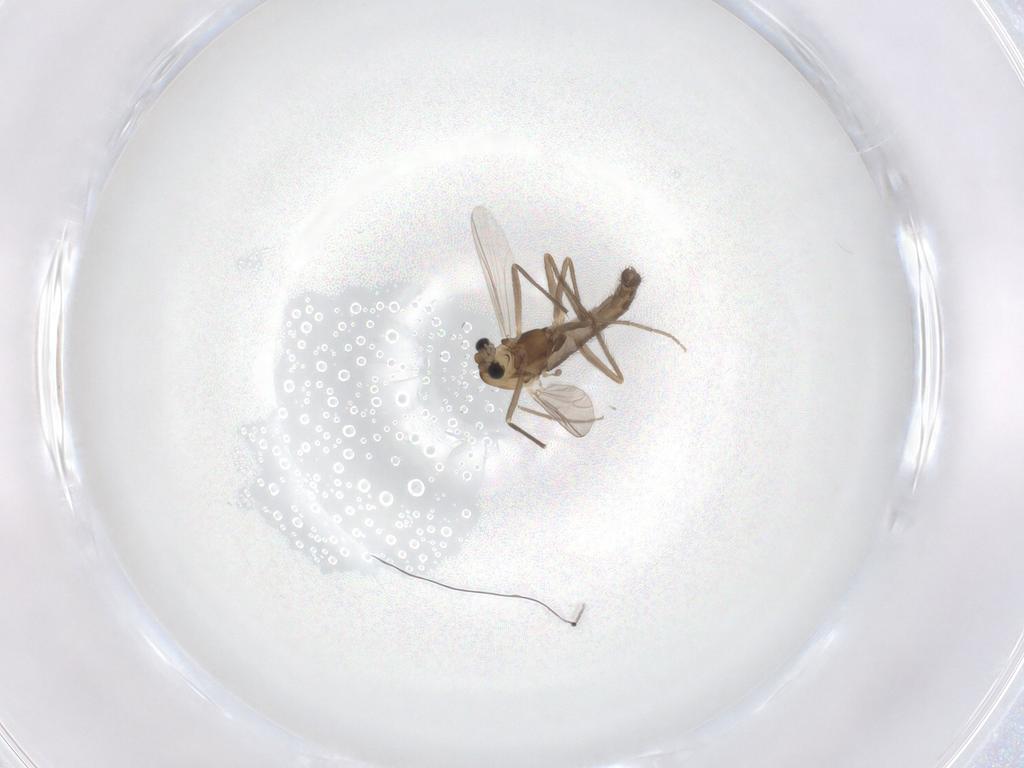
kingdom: Animalia
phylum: Arthropoda
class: Insecta
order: Diptera
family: Chironomidae
